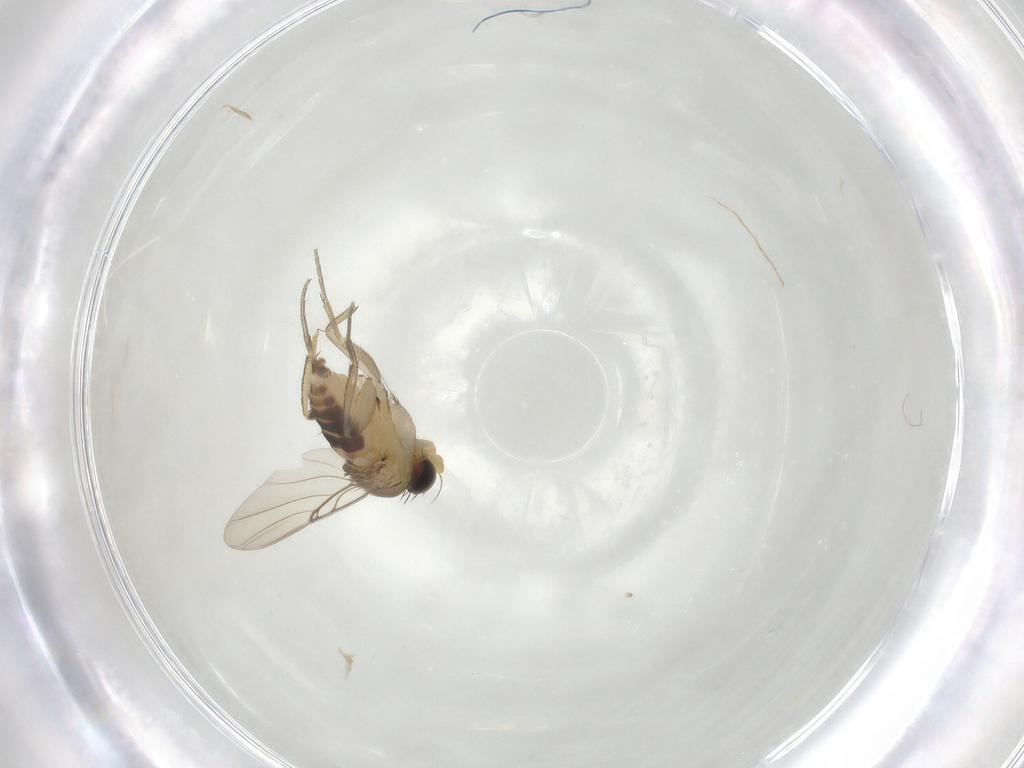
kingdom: Animalia
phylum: Arthropoda
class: Insecta
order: Diptera
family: Phoridae
